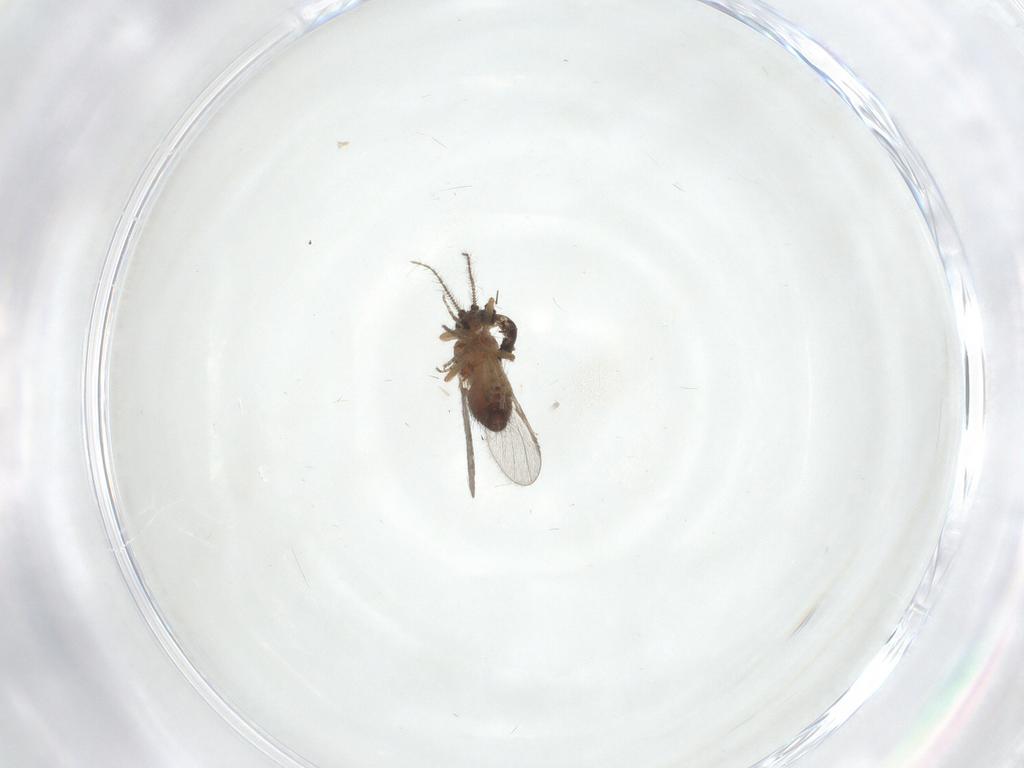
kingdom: Animalia
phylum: Arthropoda
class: Insecta
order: Diptera
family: Ceratopogonidae
